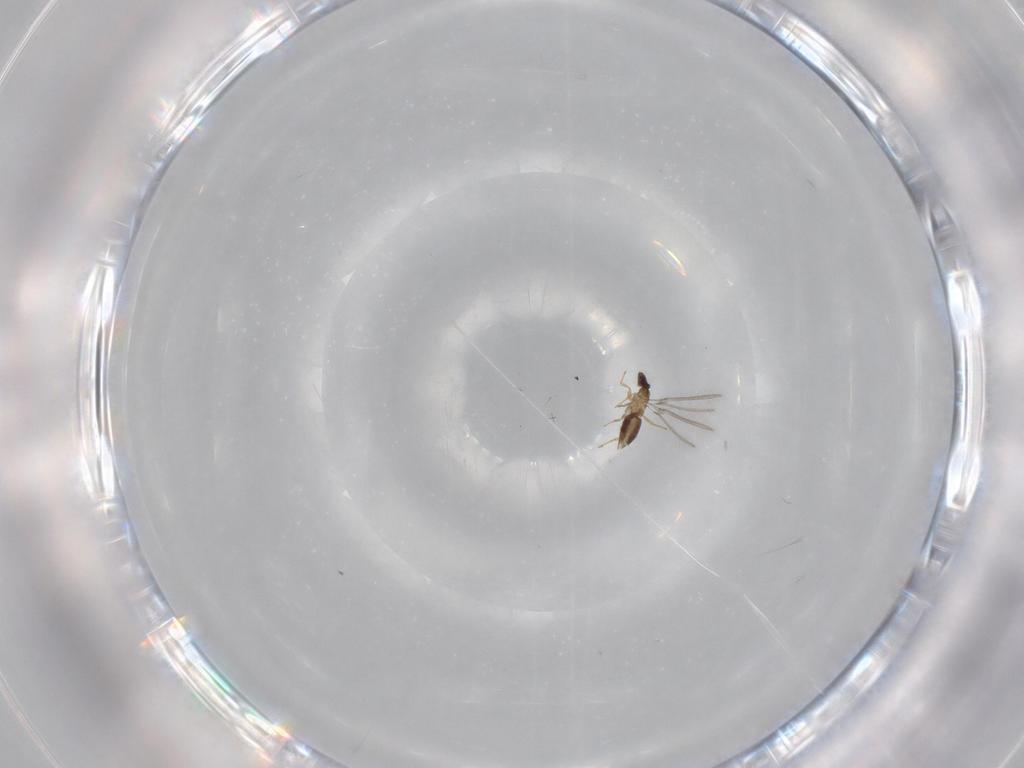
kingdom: Animalia
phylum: Arthropoda
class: Insecta
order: Hymenoptera
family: Mymaridae
